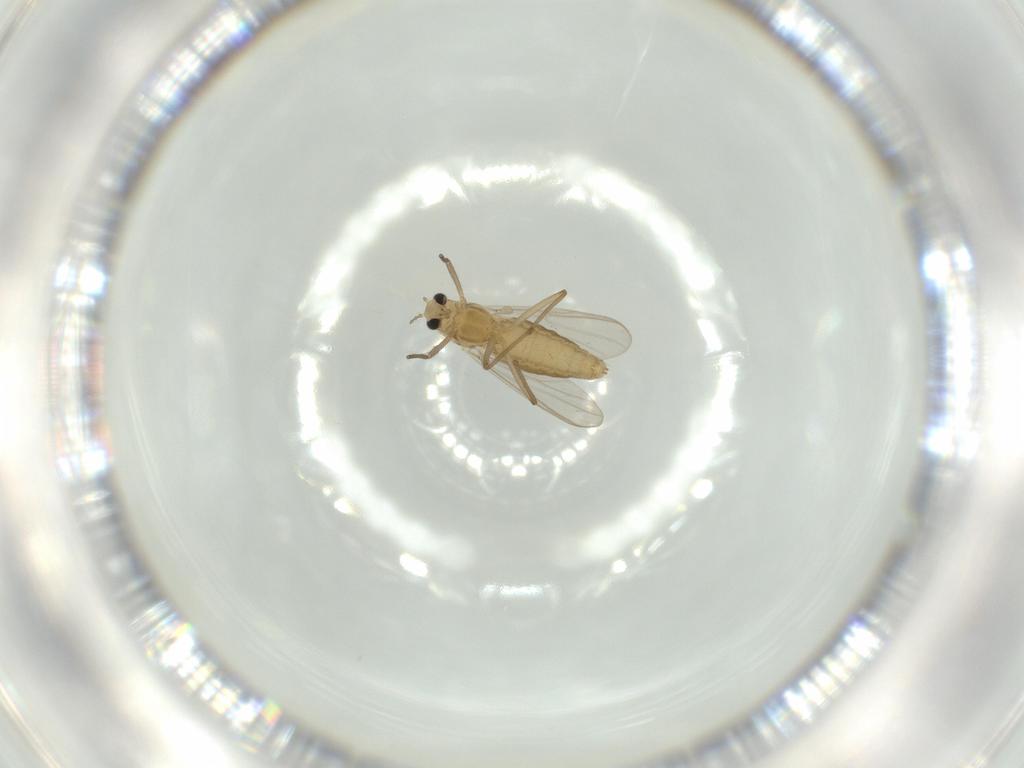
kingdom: Animalia
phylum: Arthropoda
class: Insecta
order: Diptera
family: Chironomidae
